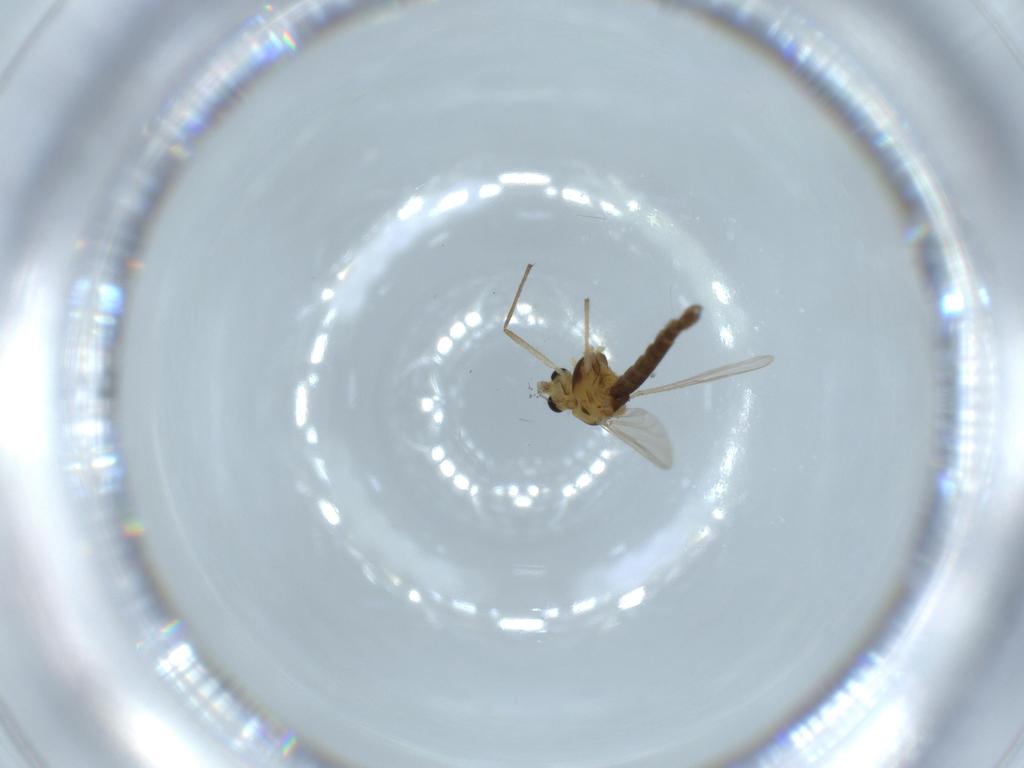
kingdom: Animalia
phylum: Arthropoda
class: Insecta
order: Diptera
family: Chironomidae
